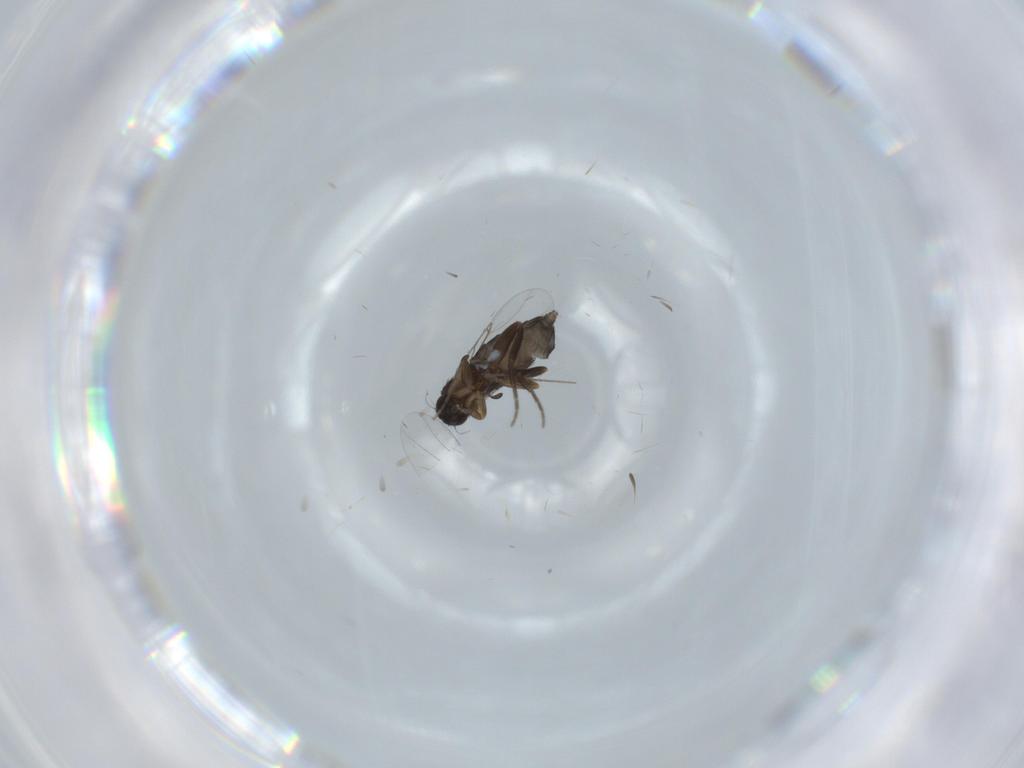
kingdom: Animalia
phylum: Arthropoda
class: Insecta
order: Diptera
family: Phoridae
